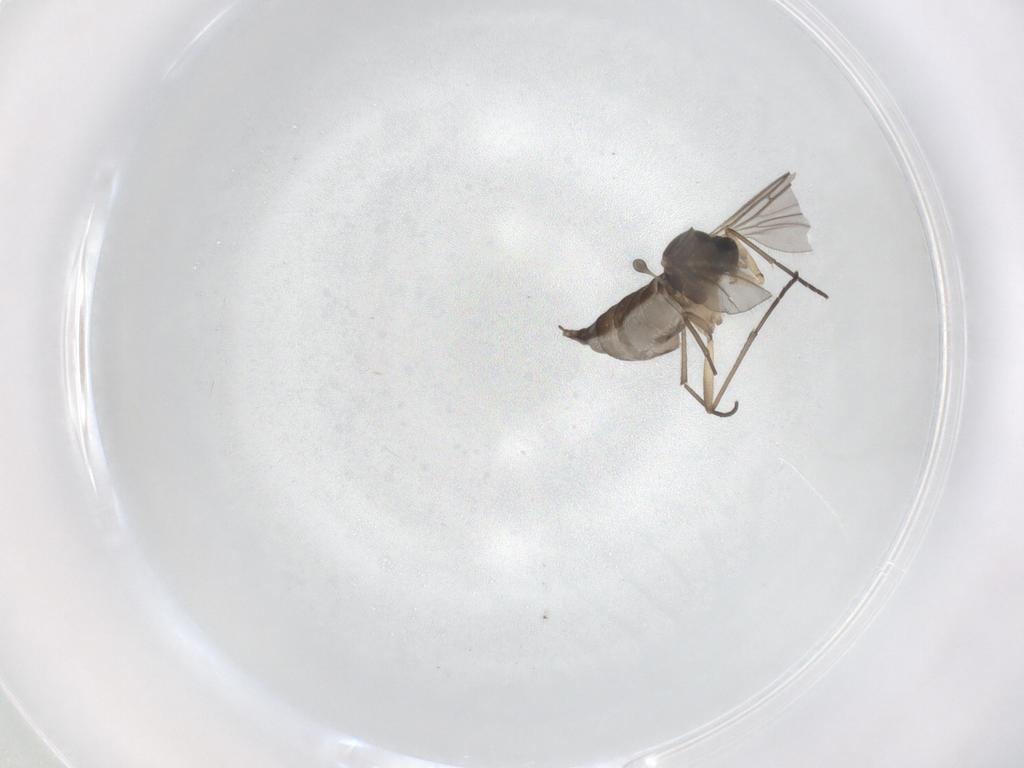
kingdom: Animalia
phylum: Arthropoda
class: Insecta
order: Diptera
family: Sciaridae
